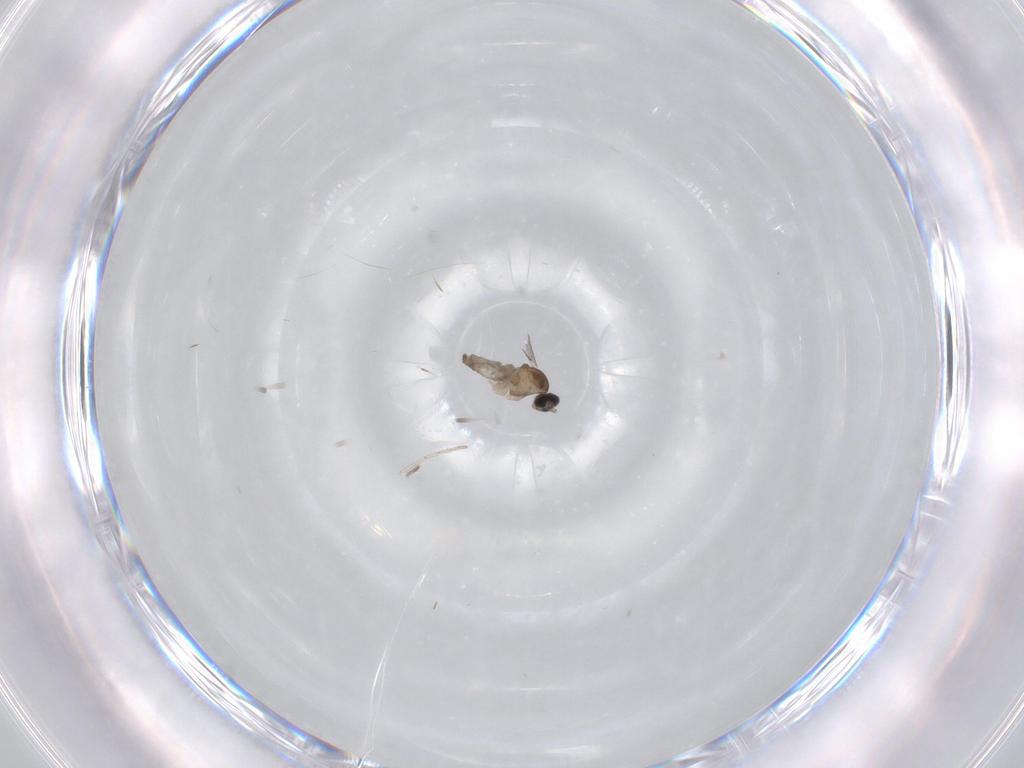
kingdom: Animalia
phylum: Arthropoda
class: Insecta
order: Diptera
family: Cecidomyiidae
